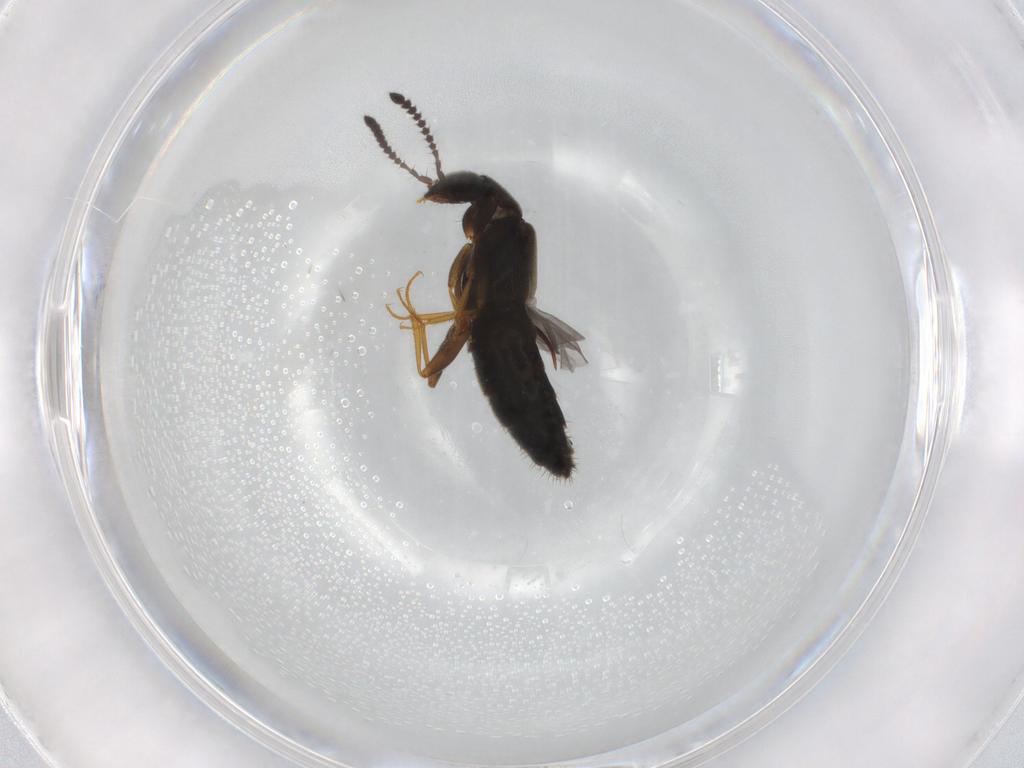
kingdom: Animalia
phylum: Arthropoda
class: Insecta
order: Coleoptera
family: Staphylinidae
